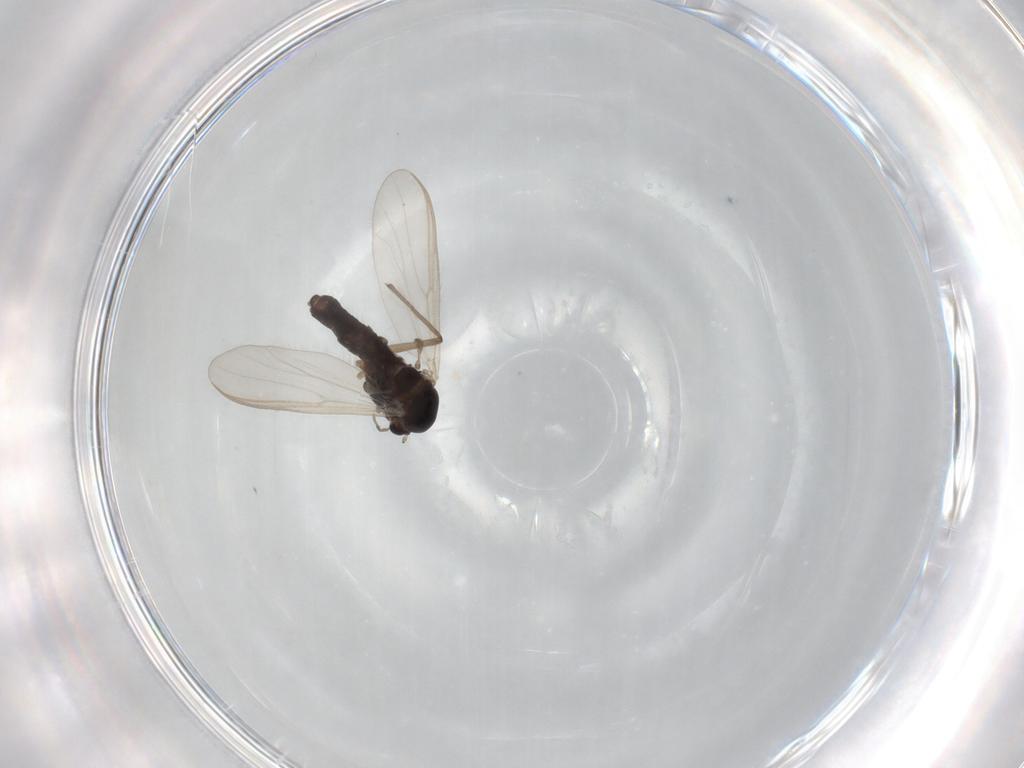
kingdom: Animalia
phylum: Arthropoda
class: Insecta
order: Diptera
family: Chironomidae
